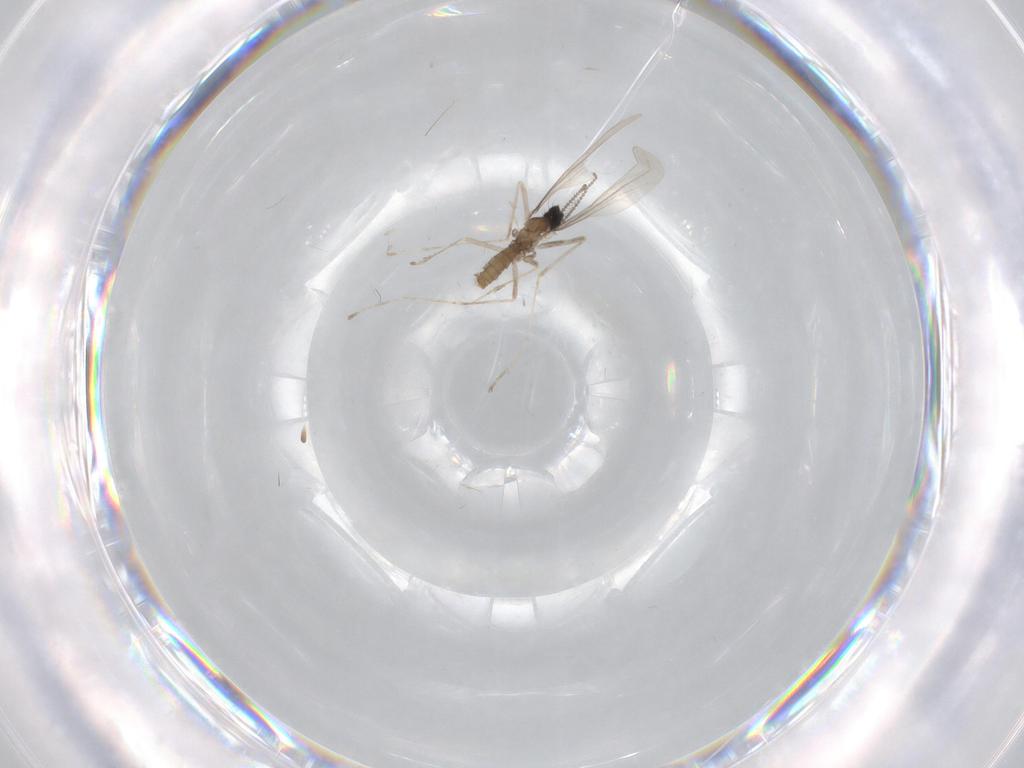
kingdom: Animalia
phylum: Arthropoda
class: Insecta
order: Diptera
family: Cecidomyiidae
